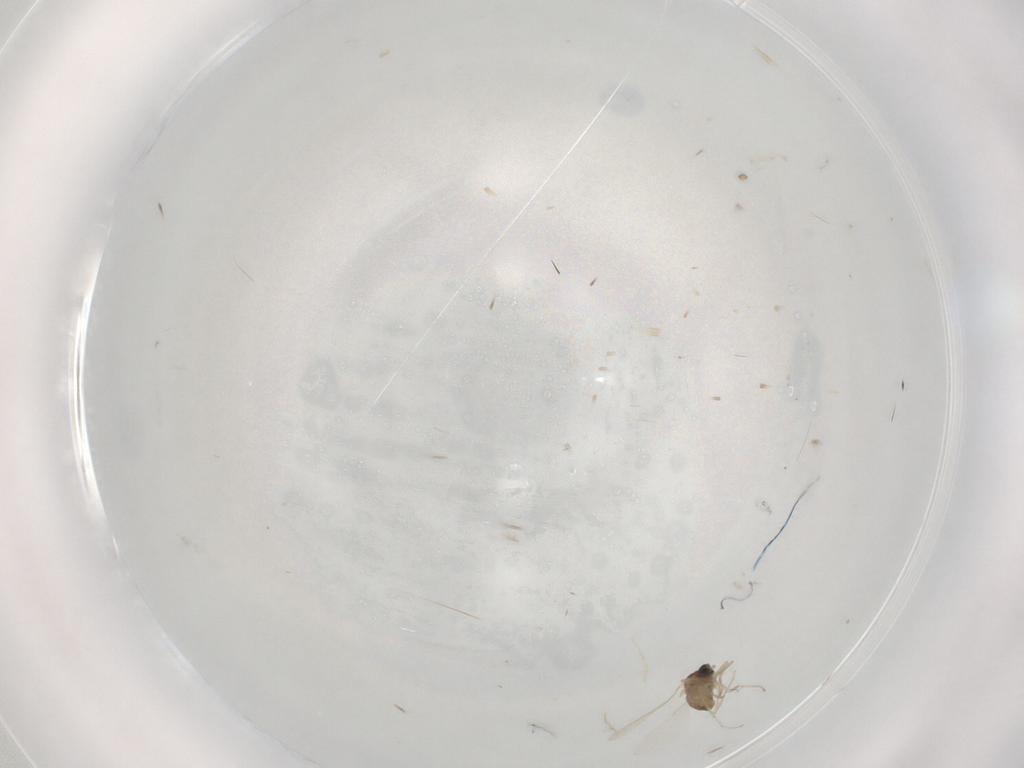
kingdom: Animalia
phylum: Arthropoda
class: Insecta
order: Diptera
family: Cecidomyiidae
